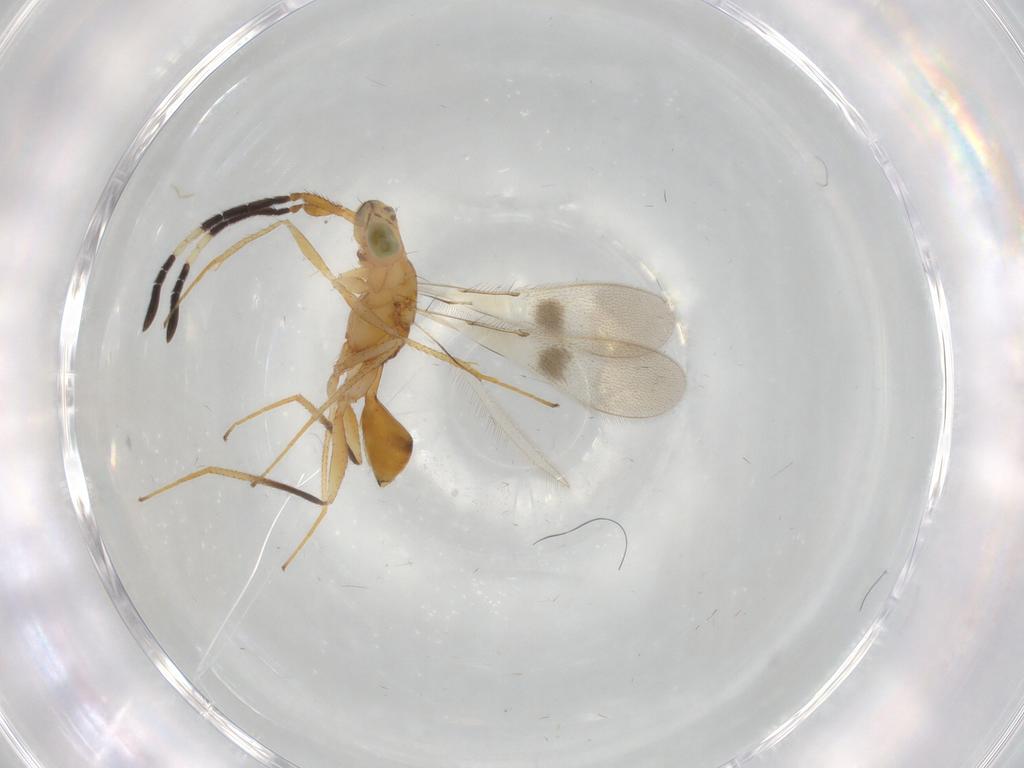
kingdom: Animalia
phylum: Arthropoda
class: Insecta
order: Hymenoptera
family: Mymaridae
